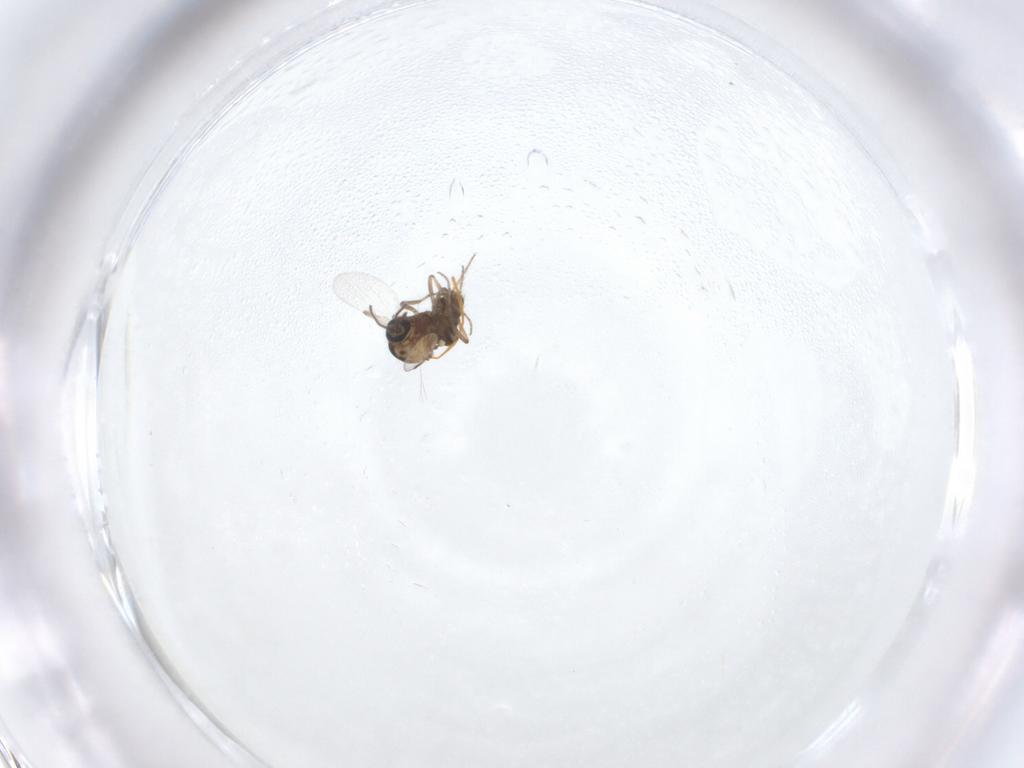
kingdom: Animalia
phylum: Arthropoda
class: Insecta
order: Diptera
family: Ceratopogonidae
